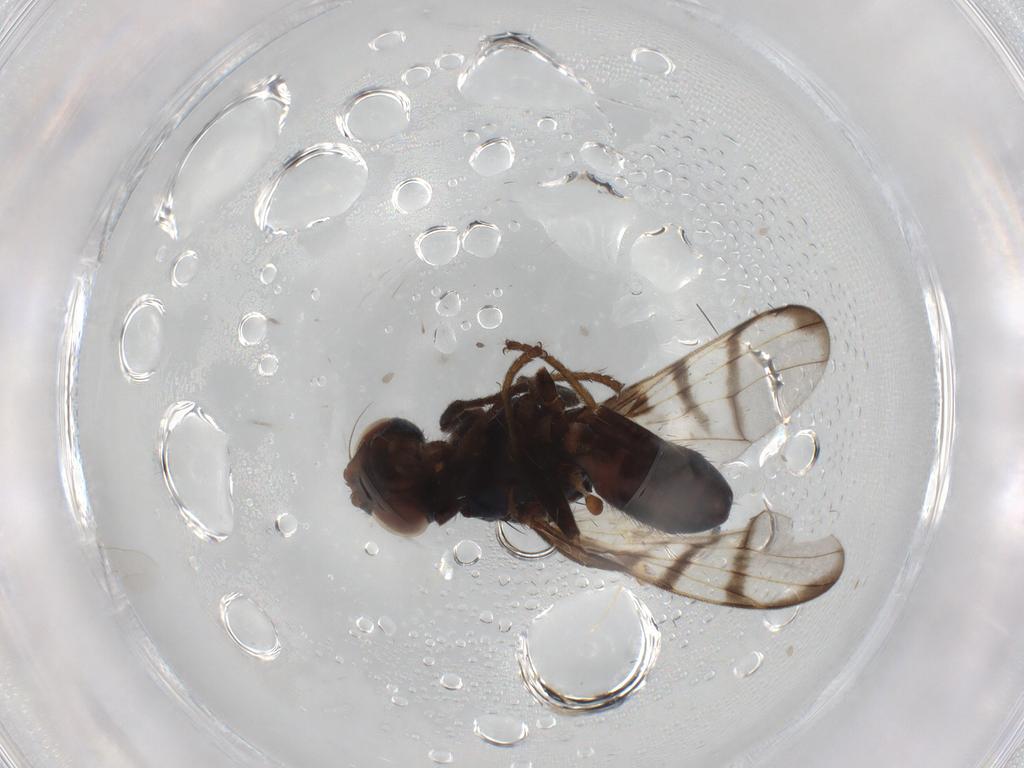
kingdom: Animalia
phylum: Arthropoda
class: Insecta
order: Diptera
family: Cecidomyiidae
